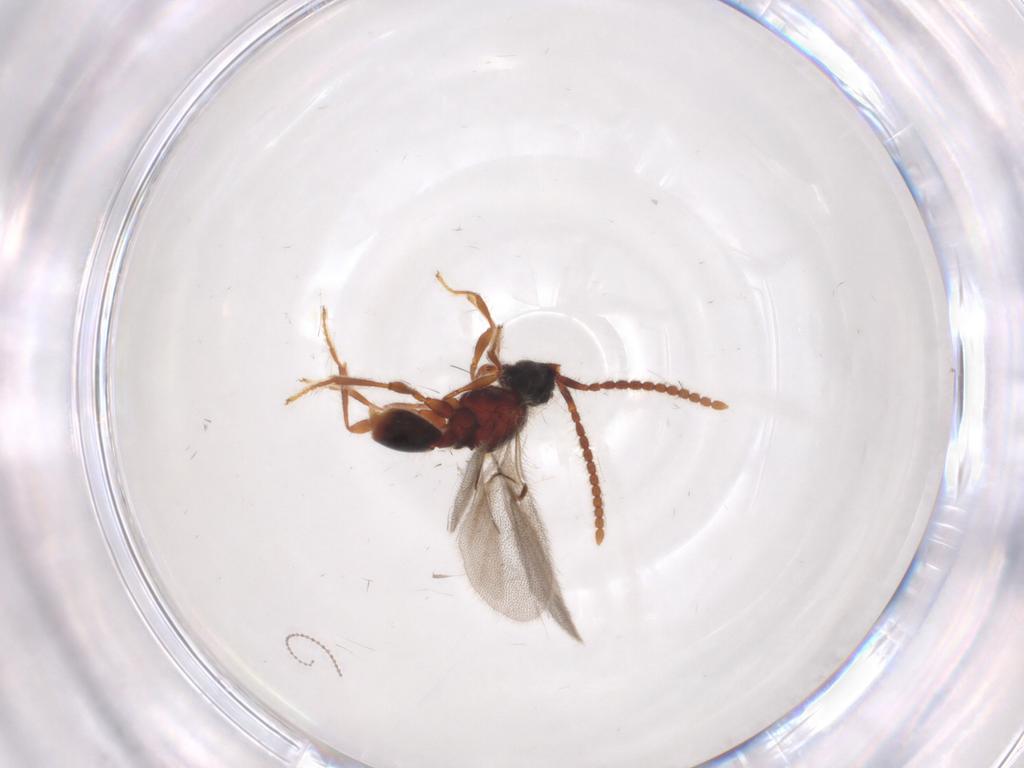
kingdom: Animalia
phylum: Arthropoda
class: Insecta
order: Hymenoptera
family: Diapriidae
